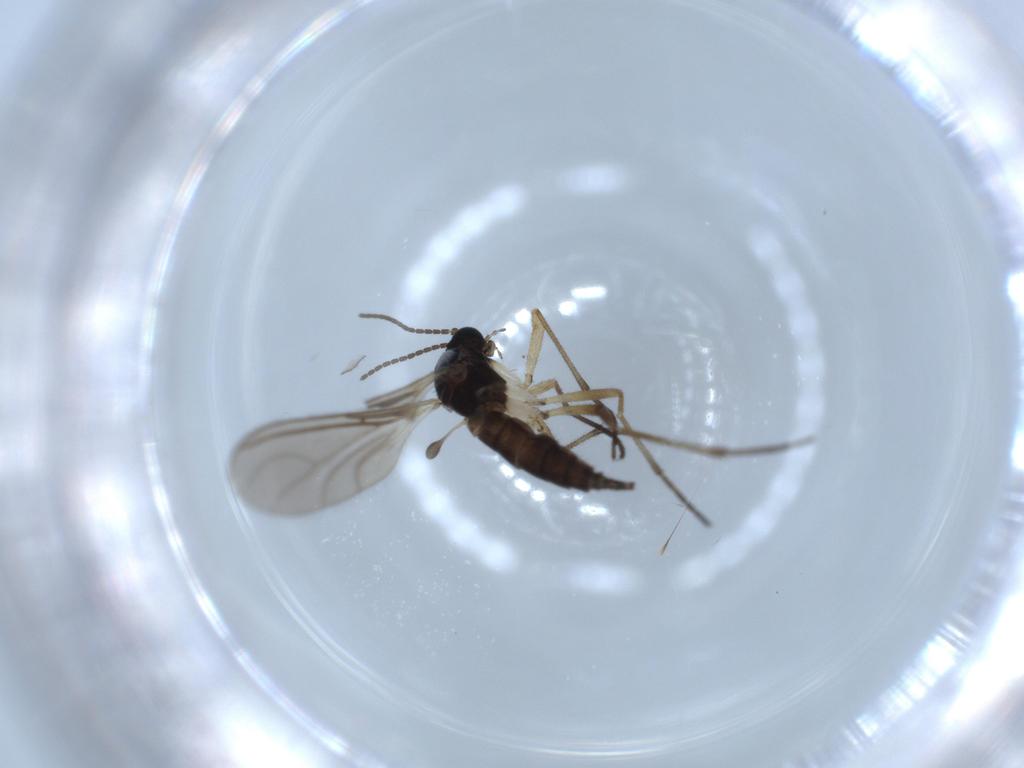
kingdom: Animalia
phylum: Arthropoda
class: Insecta
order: Diptera
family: Sciaridae
